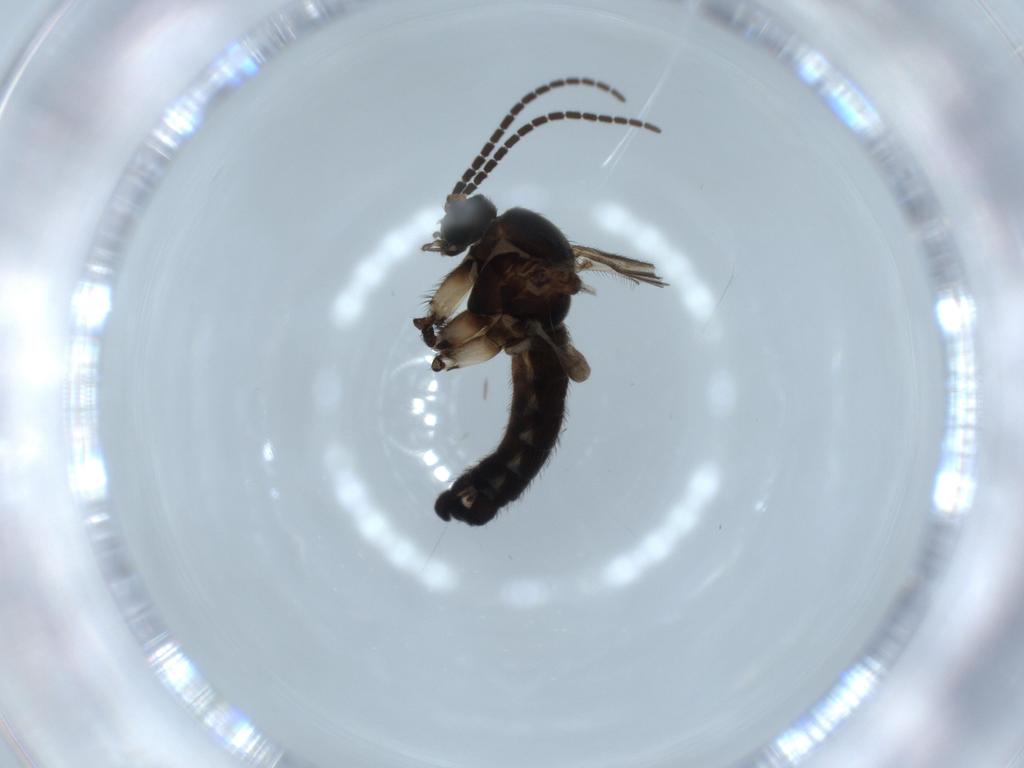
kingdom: Animalia
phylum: Arthropoda
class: Insecta
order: Diptera
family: Sciaridae
